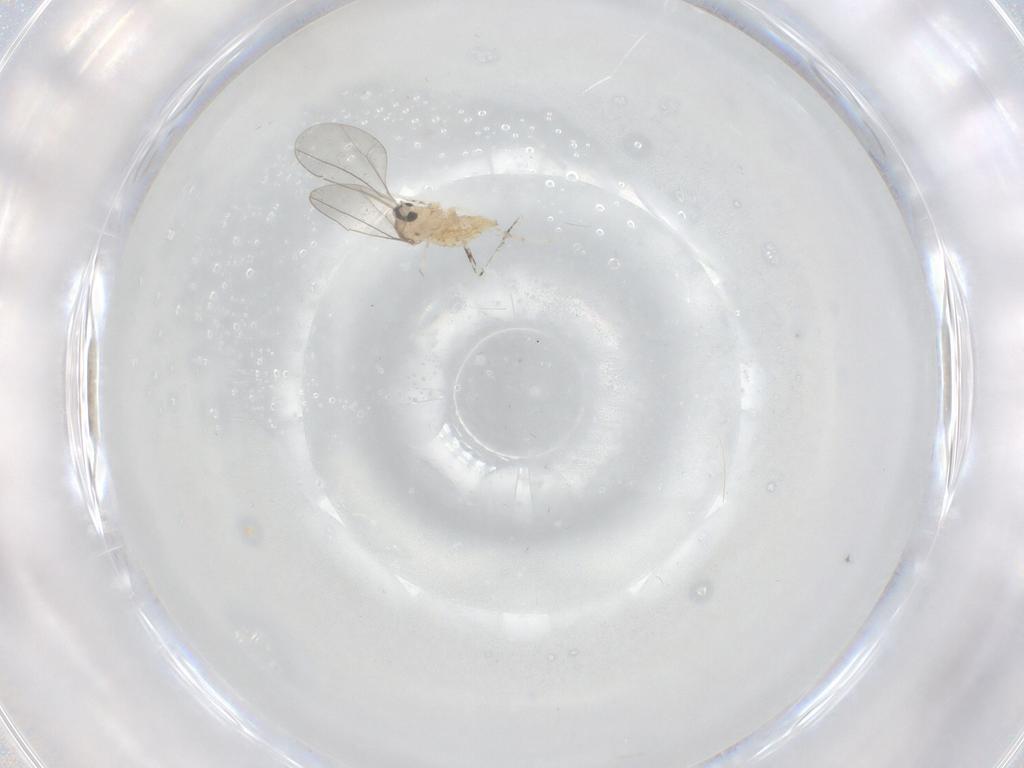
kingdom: Animalia
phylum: Arthropoda
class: Insecta
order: Diptera
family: Cecidomyiidae
